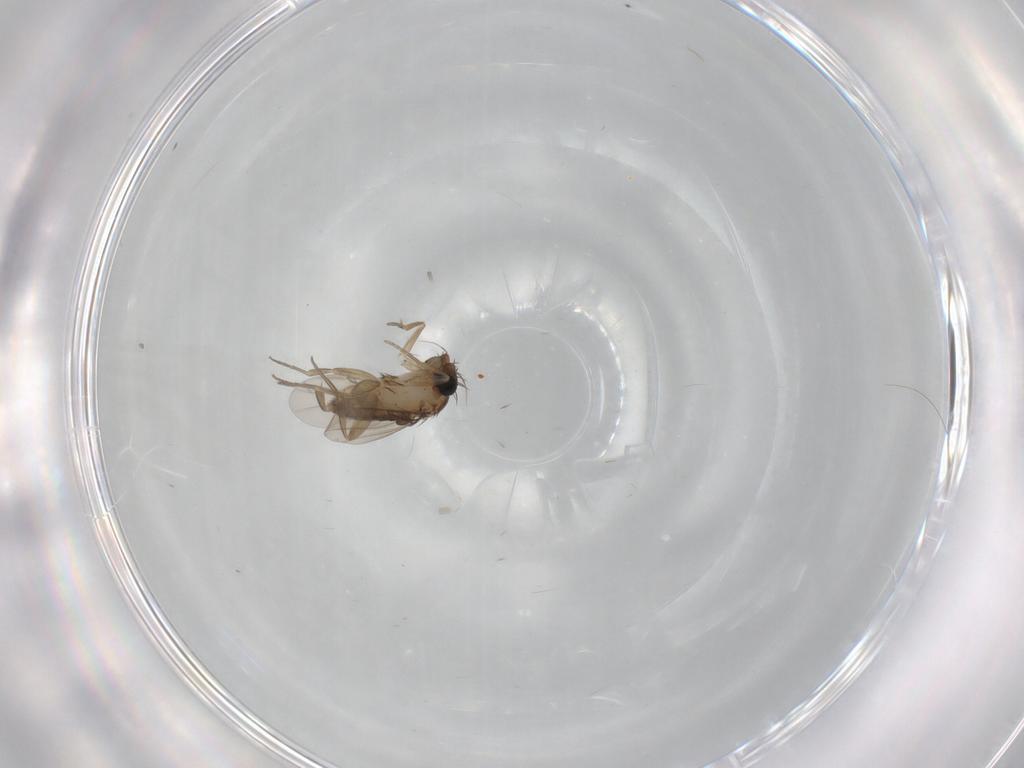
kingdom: Animalia
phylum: Arthropoda
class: Insecta
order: Diptera
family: Phoridae
